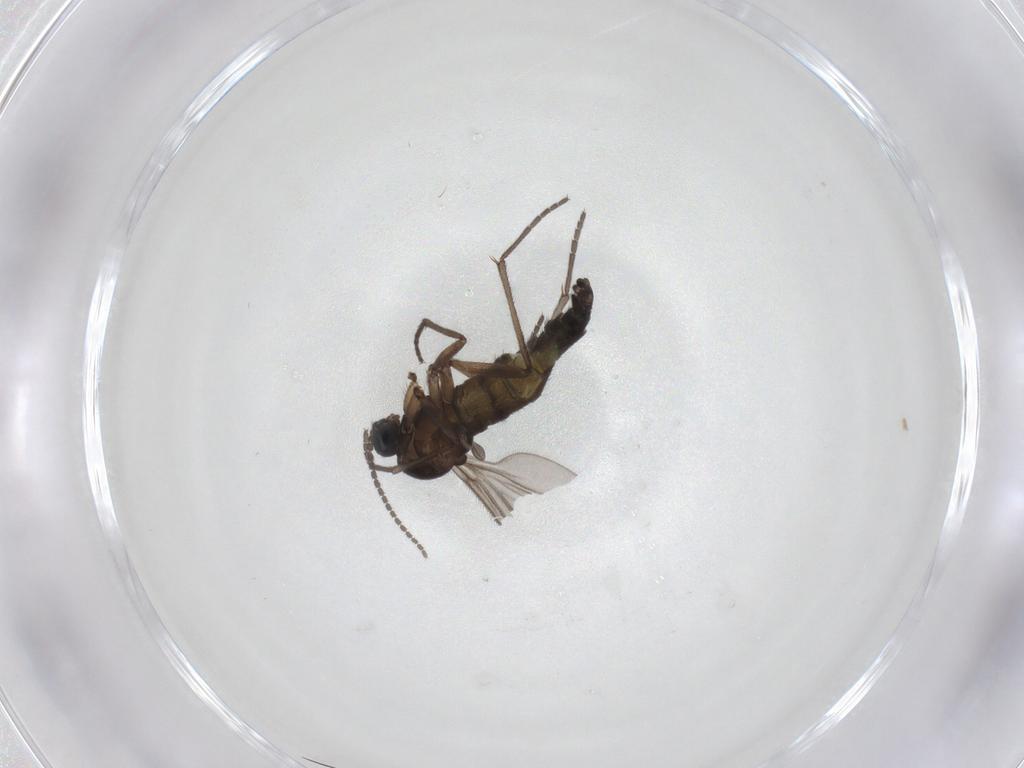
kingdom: Animalia
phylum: Arthropoda
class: Insecta
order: Diptera
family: Sciaridae
